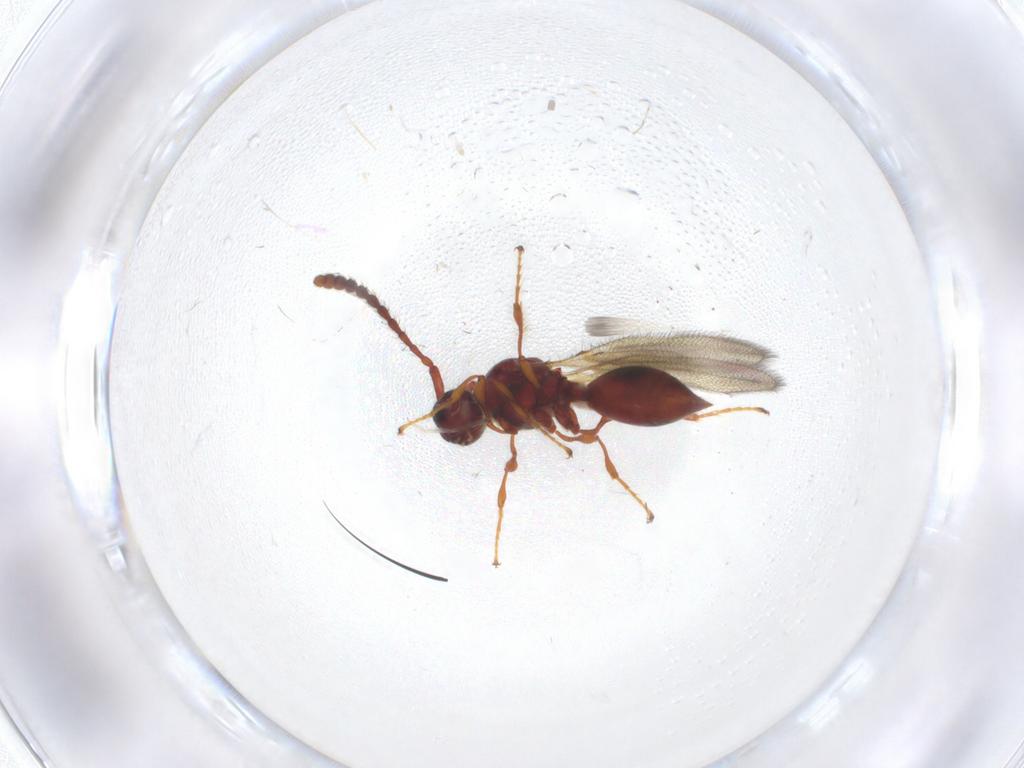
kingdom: Animalia
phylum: Arthropoda
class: Insecta
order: Hymenoptera
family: Diapriidae
